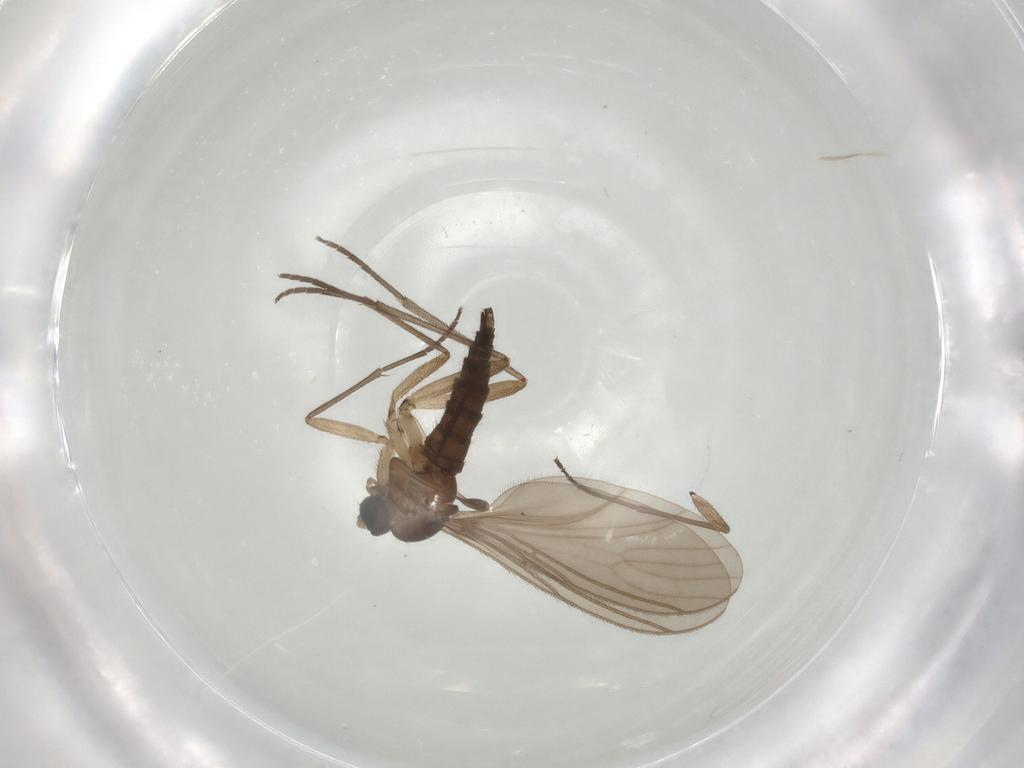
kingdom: Animalia
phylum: Arthropoda
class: Insecta
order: Diptera
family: Sciaridae
